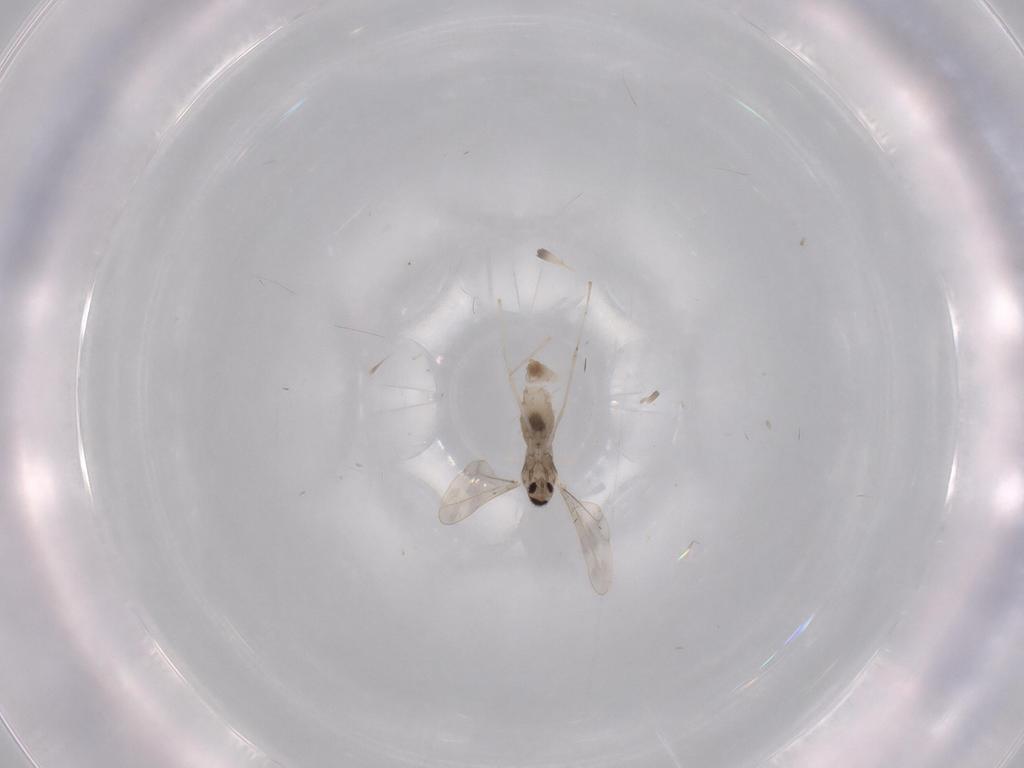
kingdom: Animalia
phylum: Arthropoda
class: Insecta
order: Diptera
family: Cecidomyiidae
